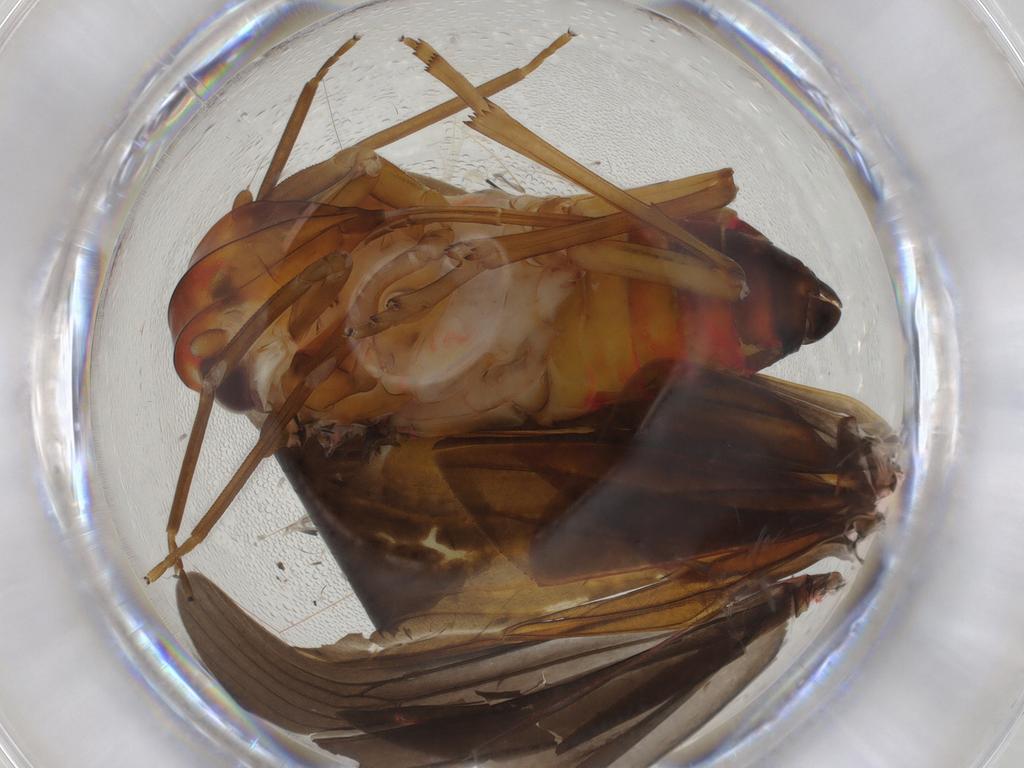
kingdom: Animalia
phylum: Arthropoda
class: Insecta
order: Hemiptera
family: Achilidae
